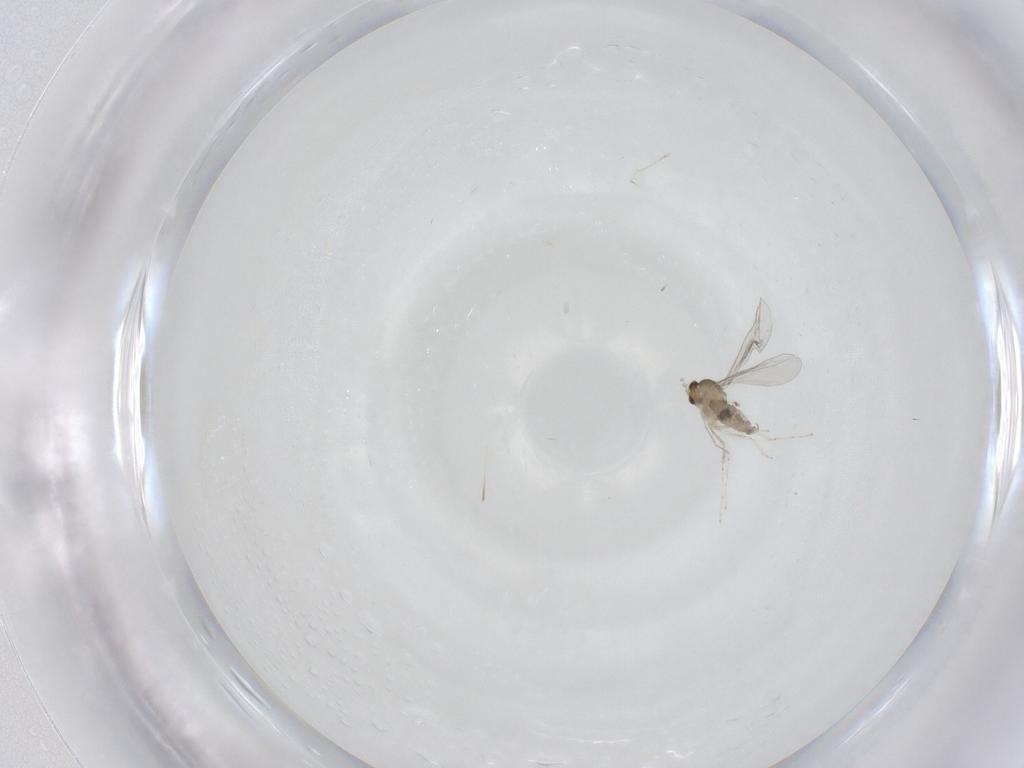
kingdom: Animalia
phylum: Arthropoda
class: Insecta
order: Diptera
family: Cecidomyiidae
